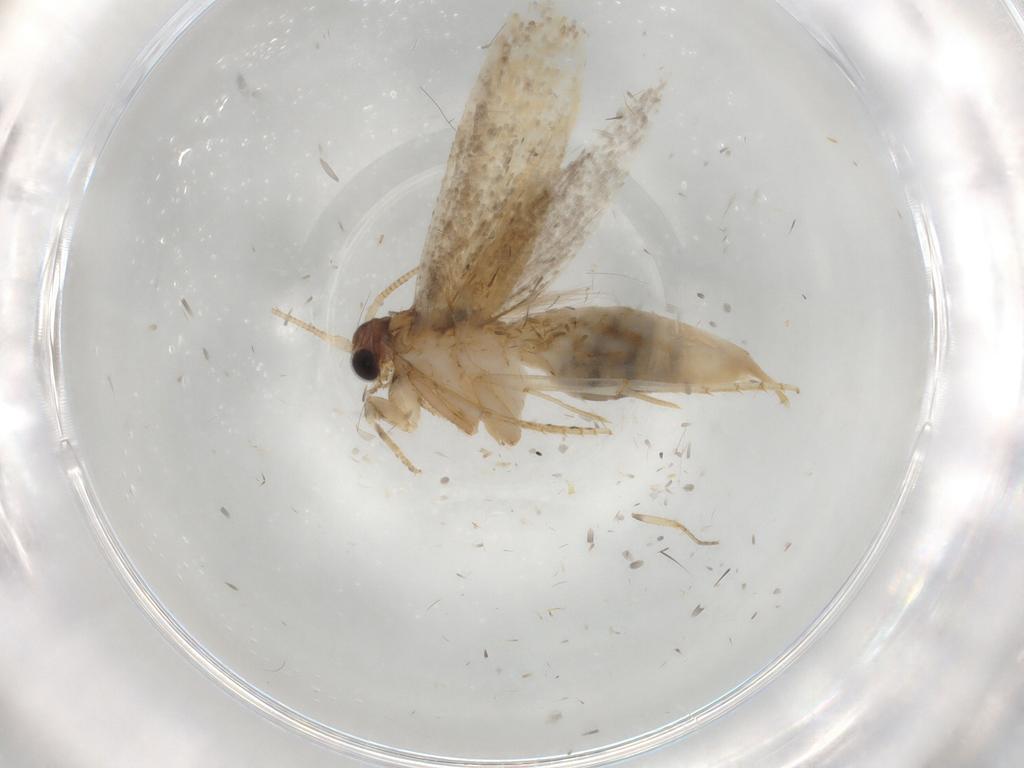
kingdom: Animalia
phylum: Arthropoda
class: Insecta
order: Lepidoptera
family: Tineidae
